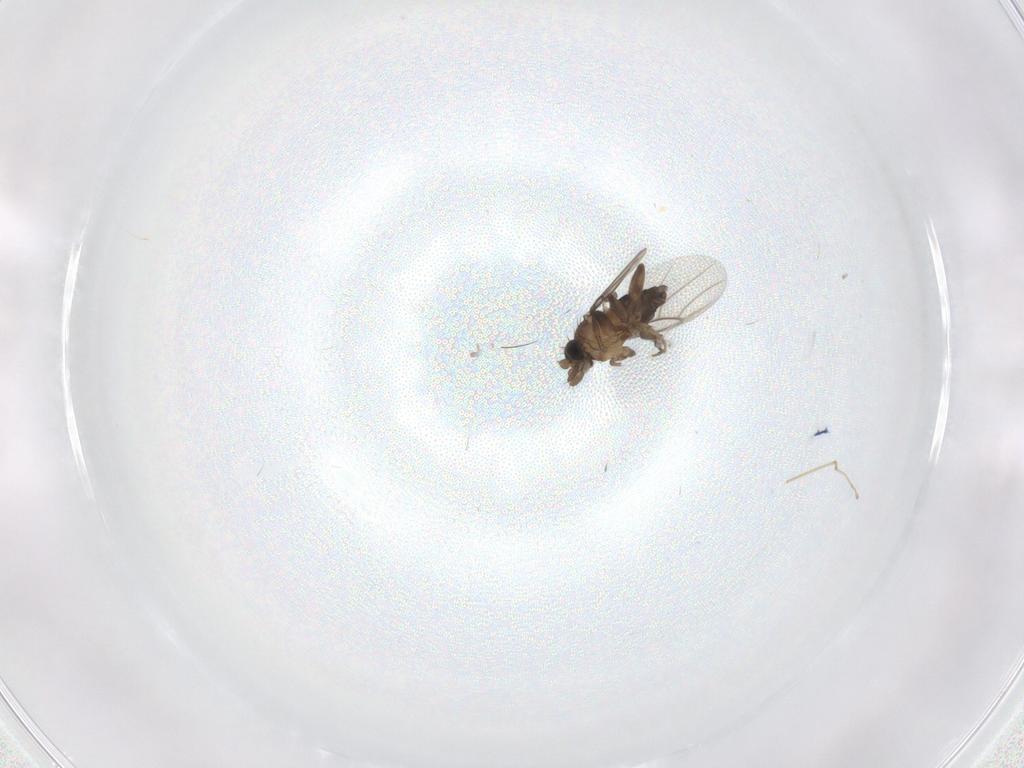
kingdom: Animalia
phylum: Arthropoda
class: Insecta
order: Diptera
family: Phoridae
